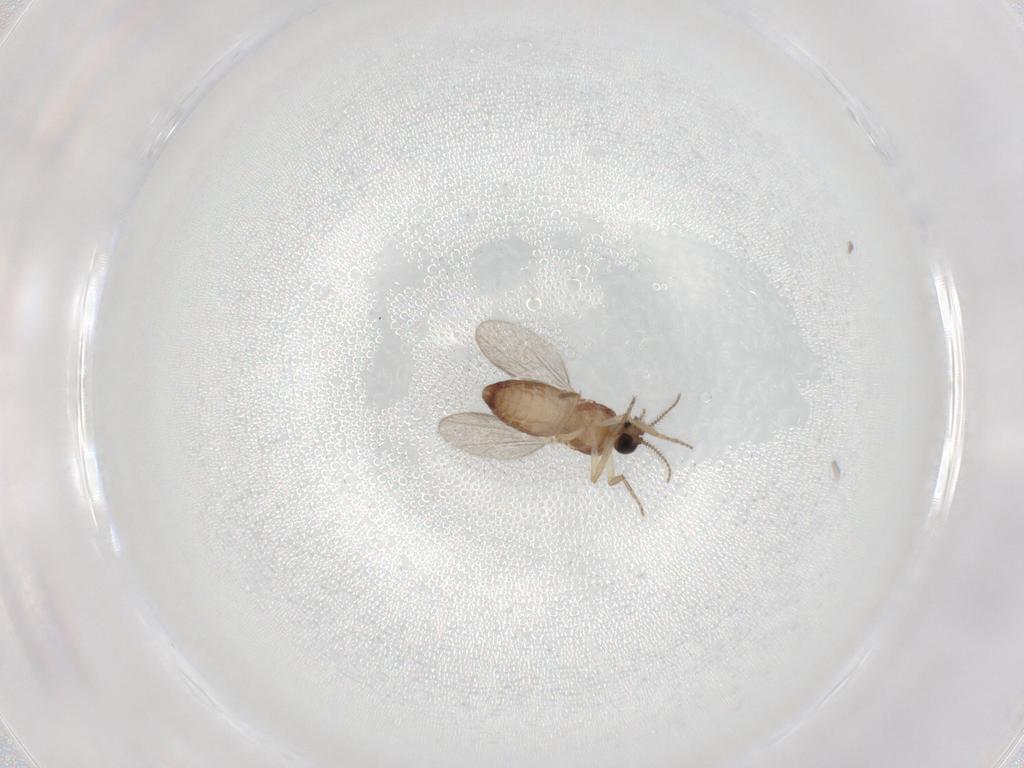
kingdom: Animalia
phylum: Arthropoda
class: Insecta
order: Diptera
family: Ceratopogonidae
